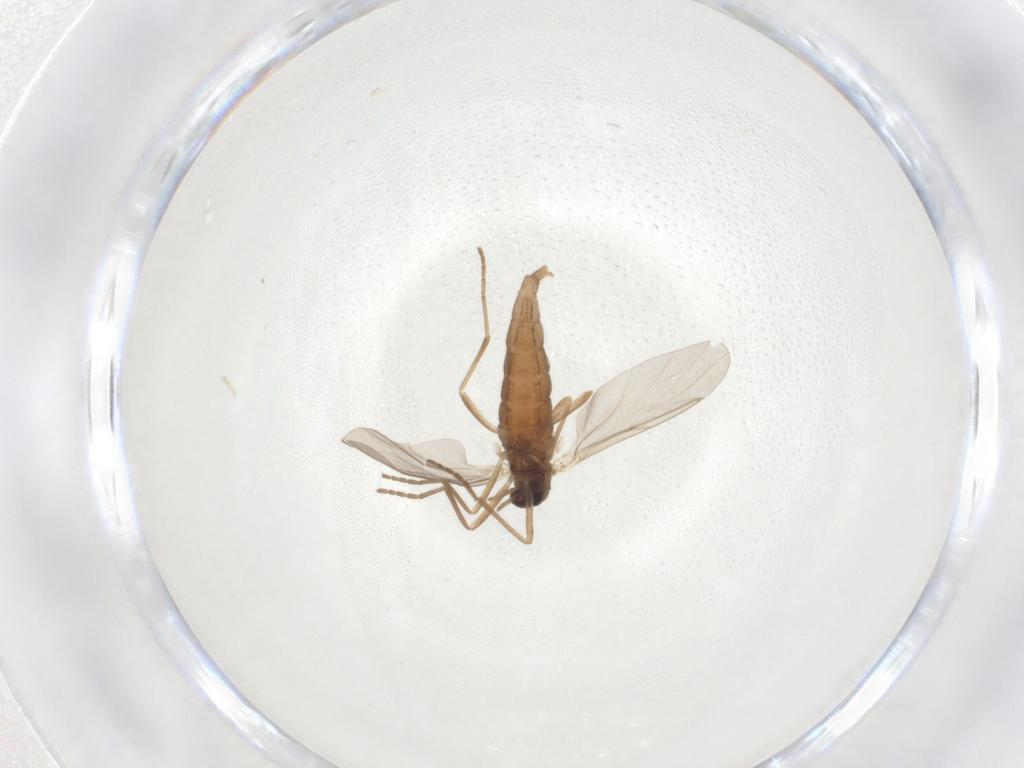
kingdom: Animalia
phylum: Arthropoda
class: Insecta
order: Diptera
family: Cecidomyiidae
